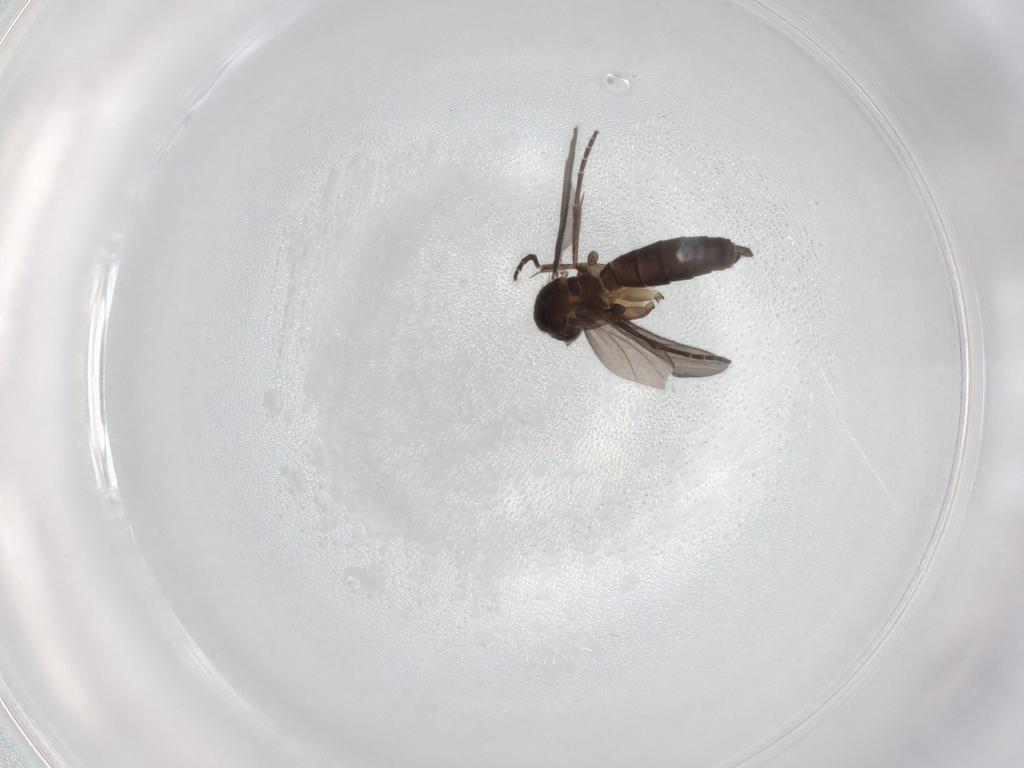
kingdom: Animalia
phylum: Arthropoda
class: Insecta
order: Diptera
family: Mycetophilidae
